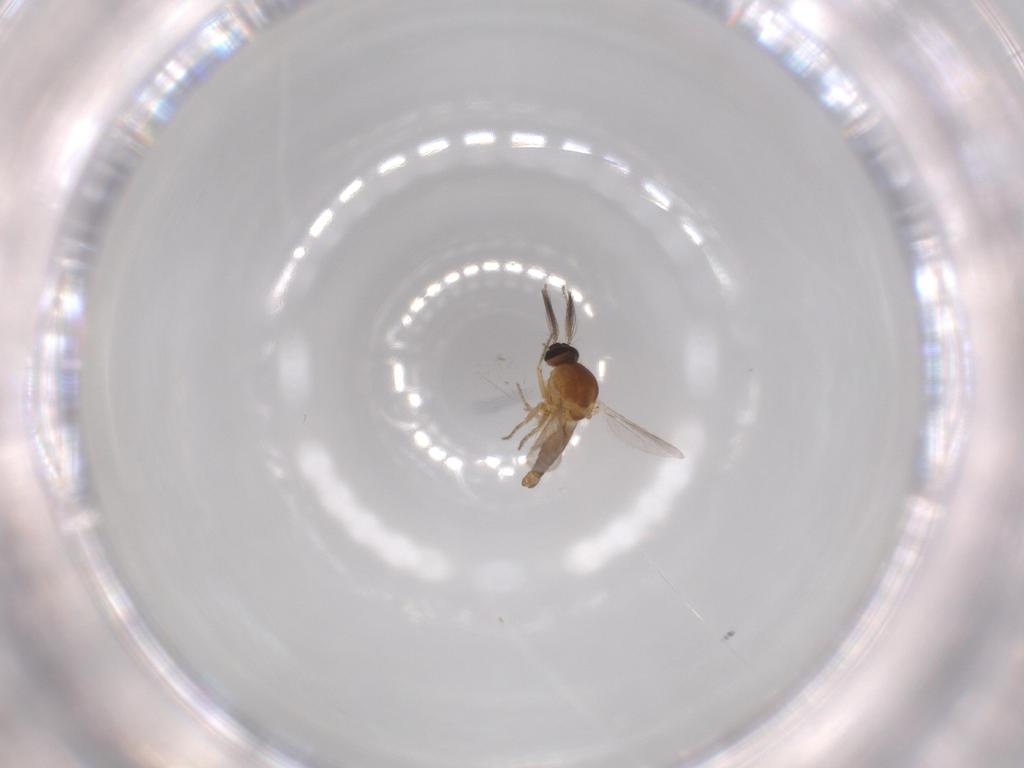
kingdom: Animalia
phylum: Arthropoda
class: Insecta
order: Diptera
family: Ceratopogonidae
